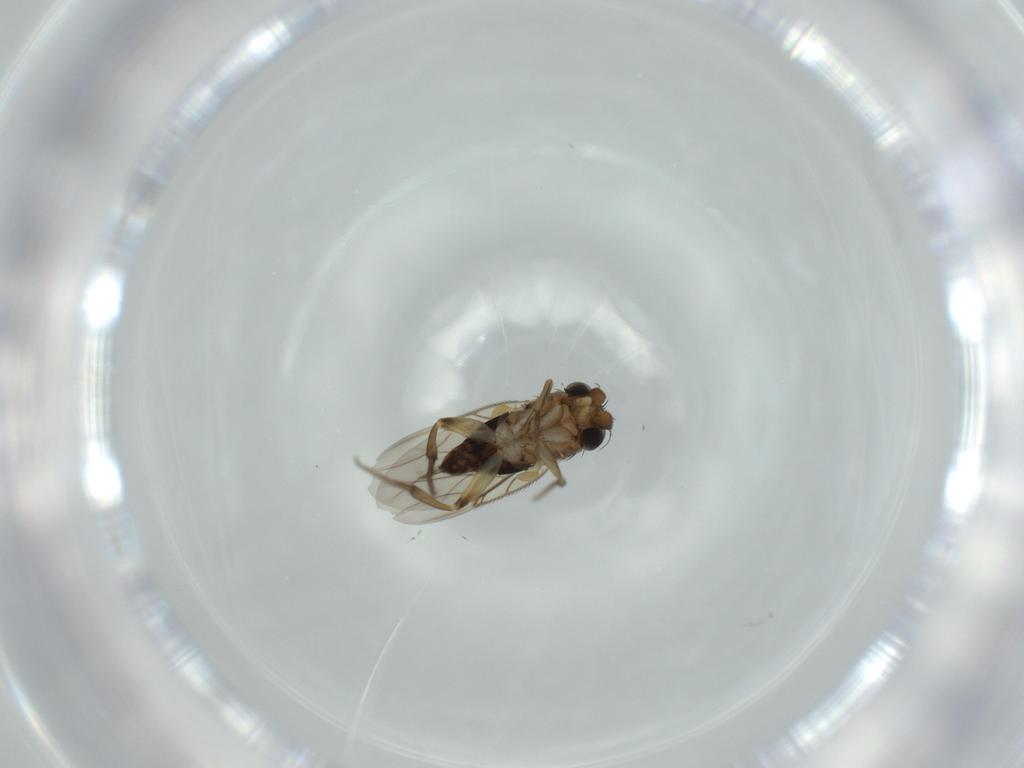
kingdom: Animalia
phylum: Arthropoda
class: Insecta
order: Diptera
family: Phoridae
